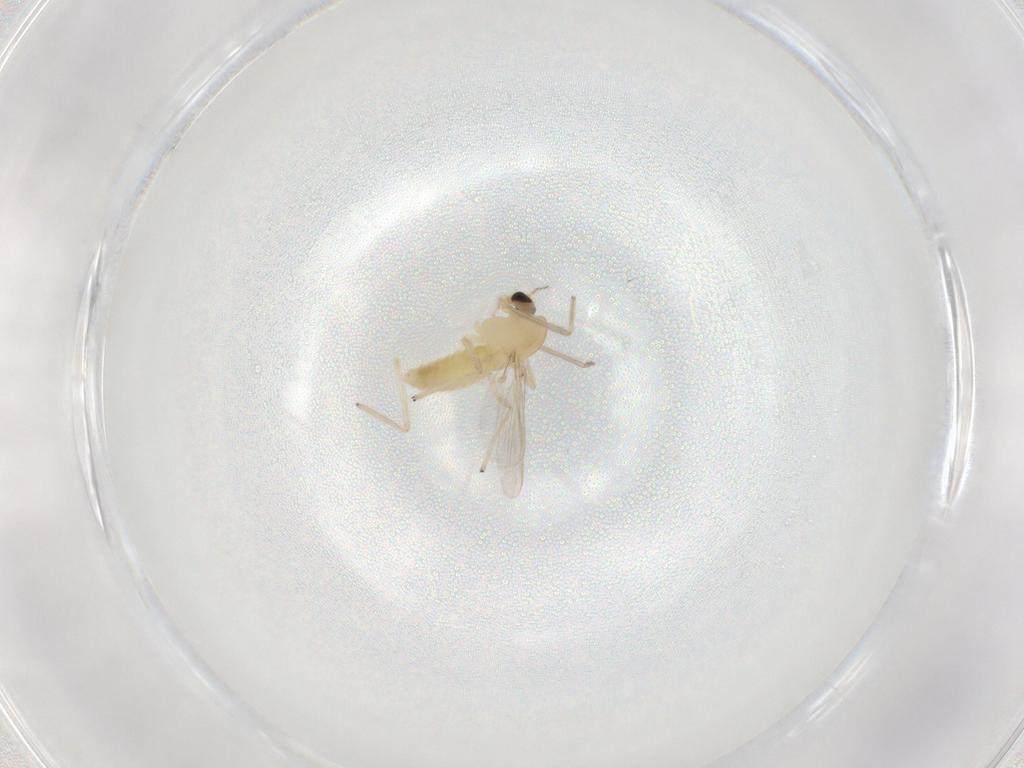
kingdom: Animalia
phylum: Arthropoda
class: Insecta
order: Diptera
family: Chironomidae
